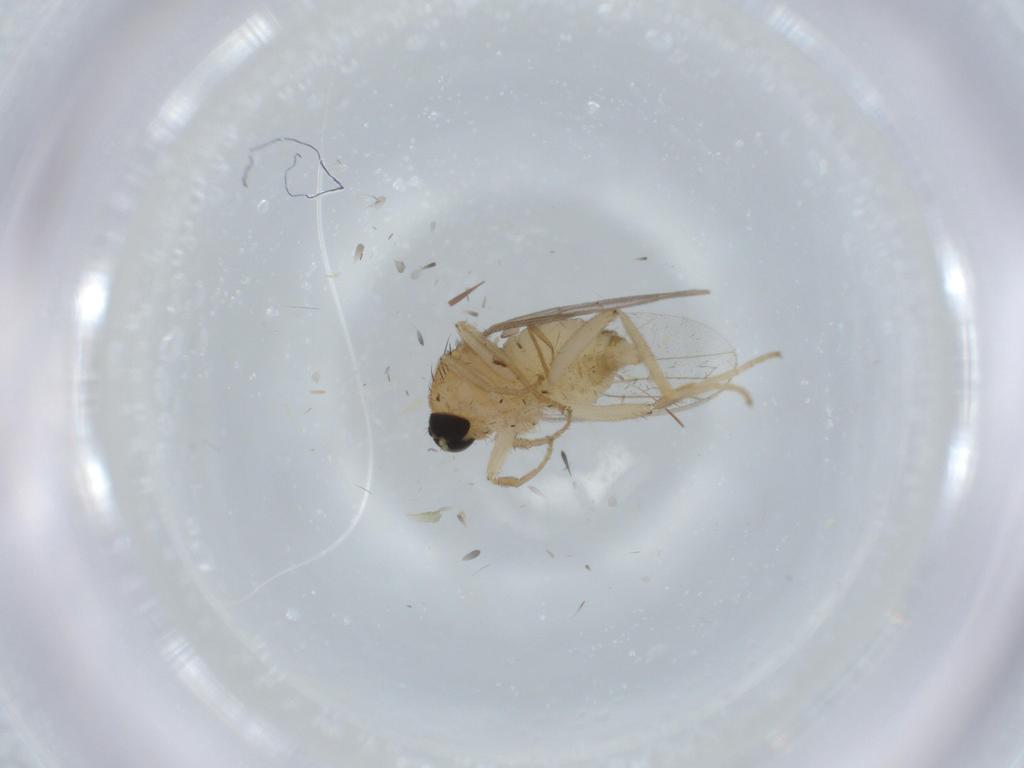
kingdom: Animalia
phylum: Arthropoda
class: Insecta
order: Diptera
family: Hybotidae
